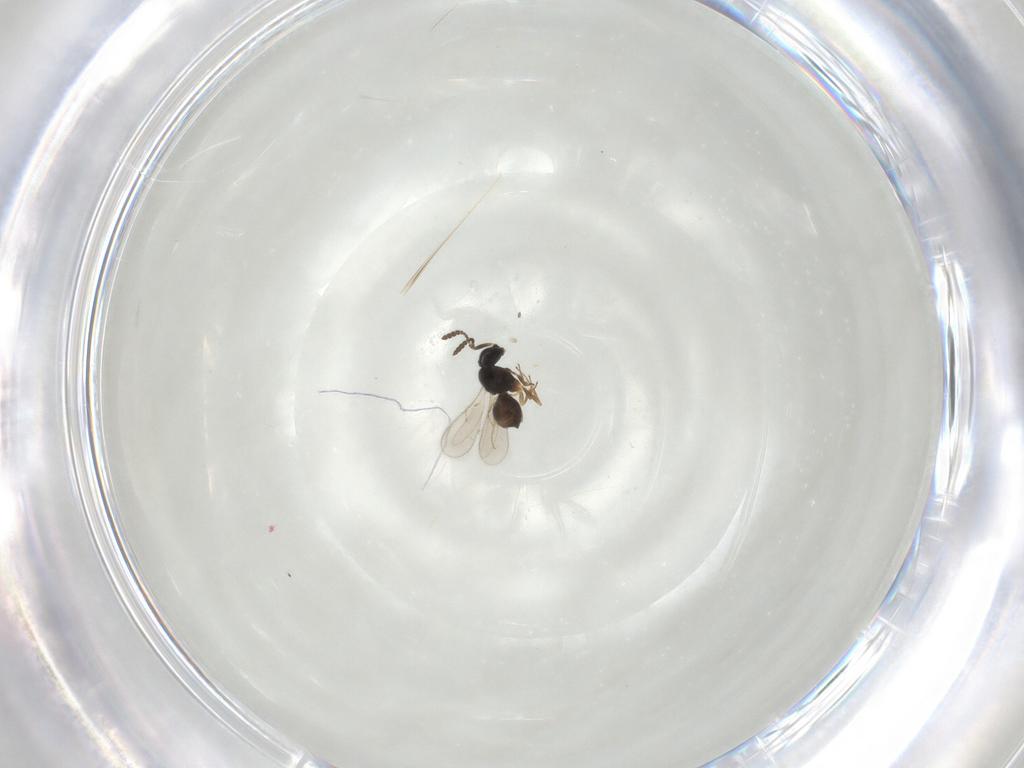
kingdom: Animalia
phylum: Arthropoda
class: Insecta
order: Hymenoptera
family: Scelionidae
